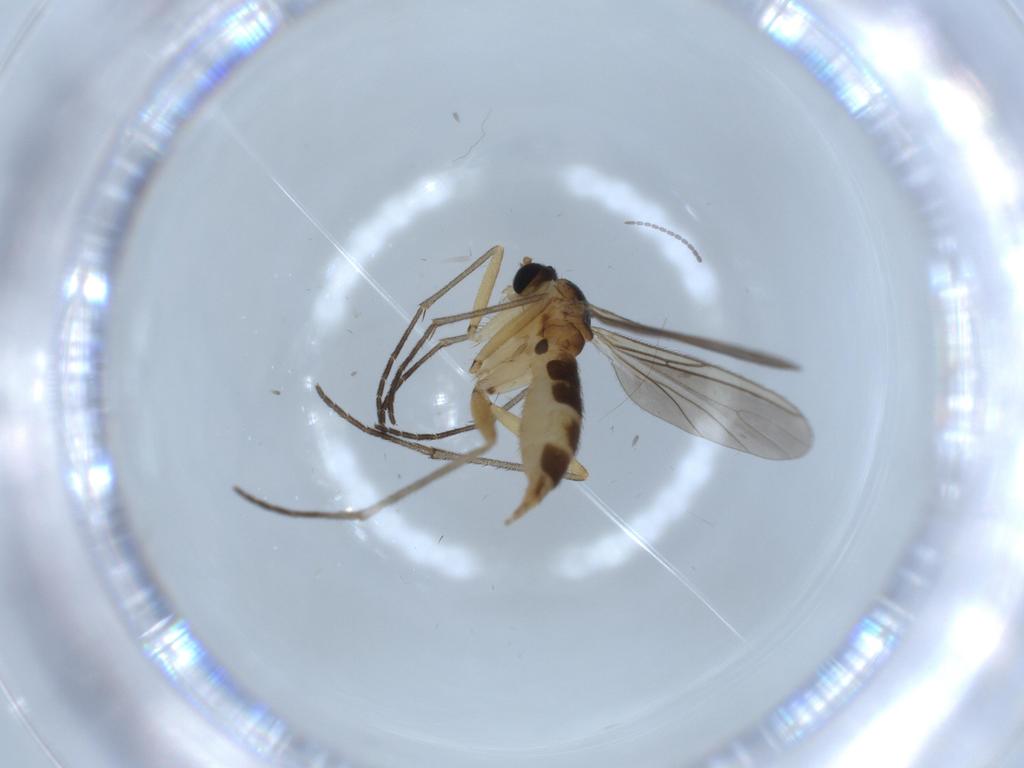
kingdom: Animalia
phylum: Arthropoda
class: Insecta
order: Diptera
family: Sciaridae
